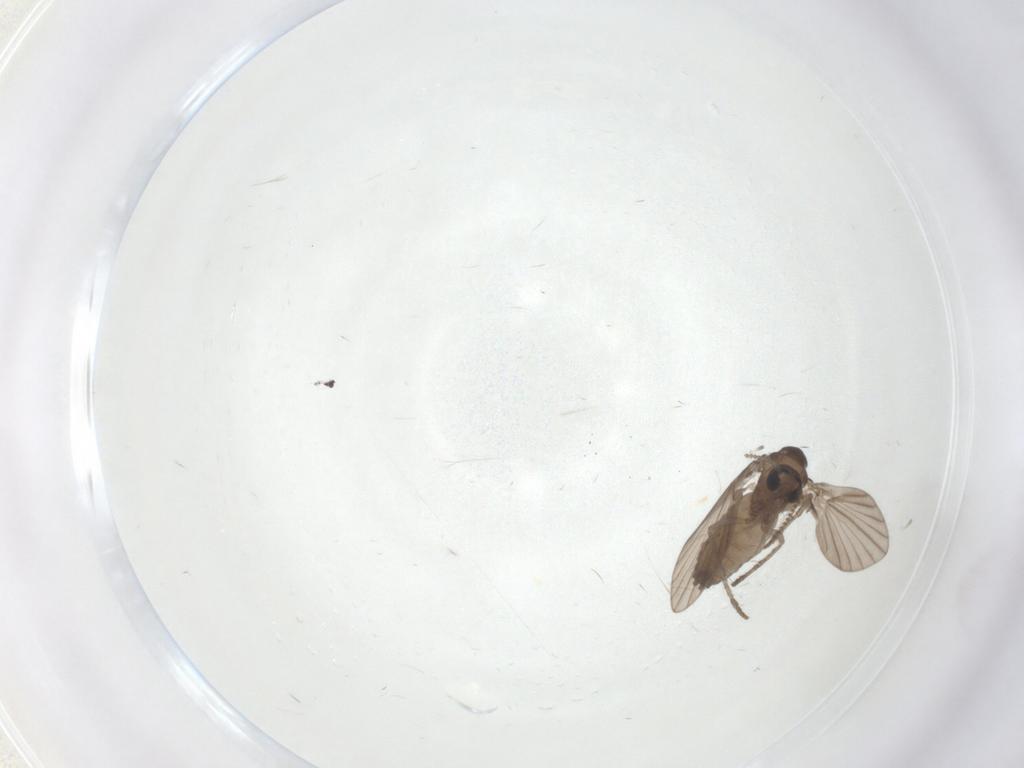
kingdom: Animalia
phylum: Arthropoda
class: Insecta
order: Diptera
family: Psychodidae
